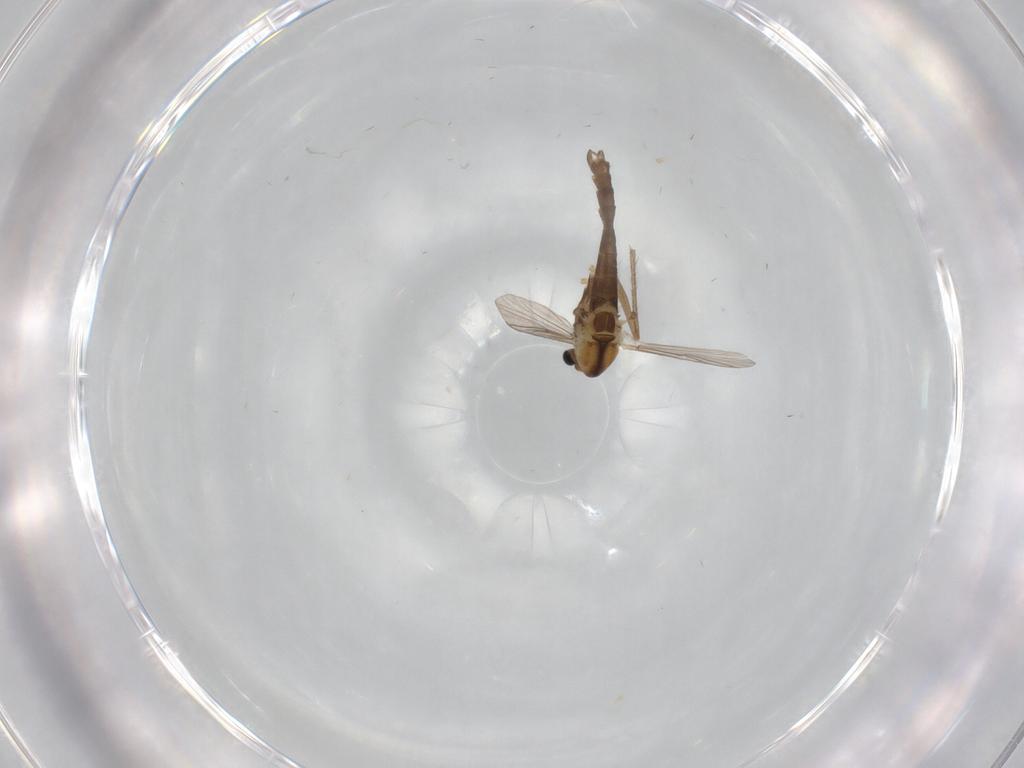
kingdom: Animalia
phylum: Arthropoda
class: Insecta
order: Diptera
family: Chironomidae
